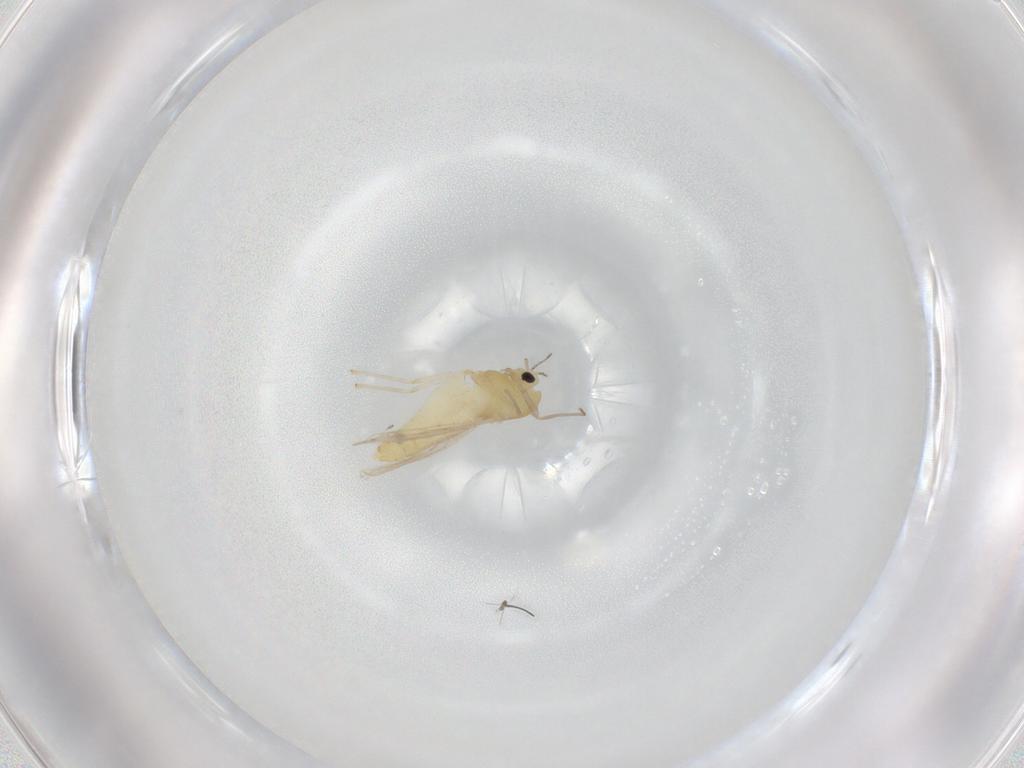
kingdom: Animalia
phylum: Arthropoda
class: Insecta
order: Diptera
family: Chironomidae
